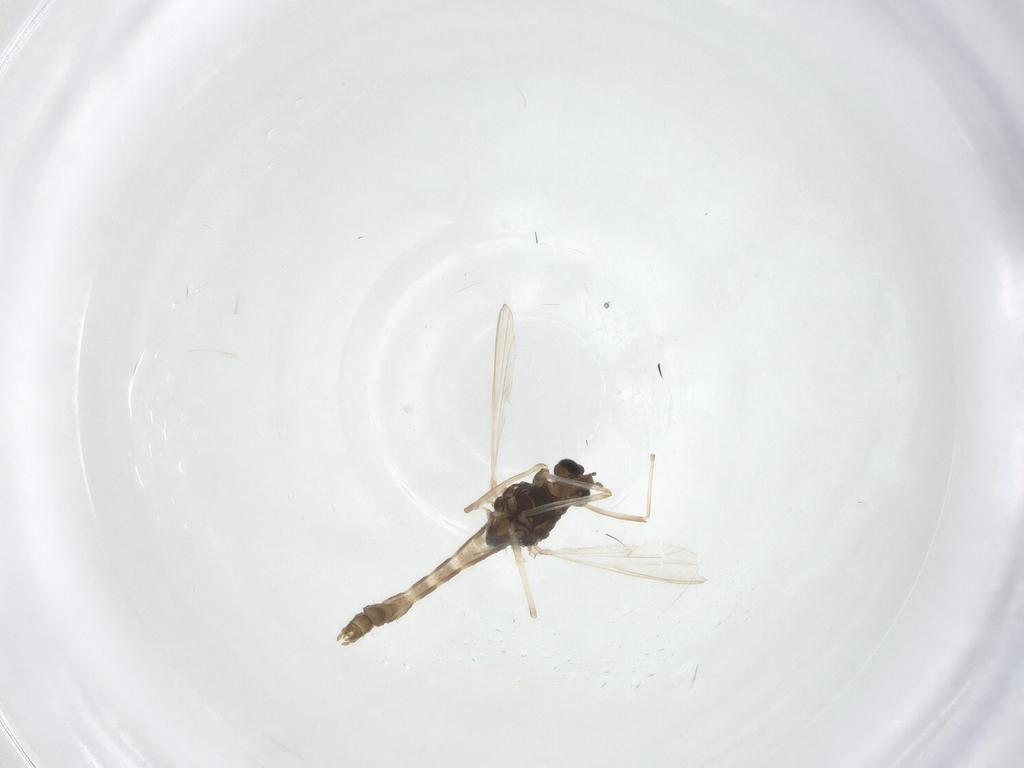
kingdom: Animalia
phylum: Arthropoda
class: Insecta
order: Diptera
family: Chironomidae
